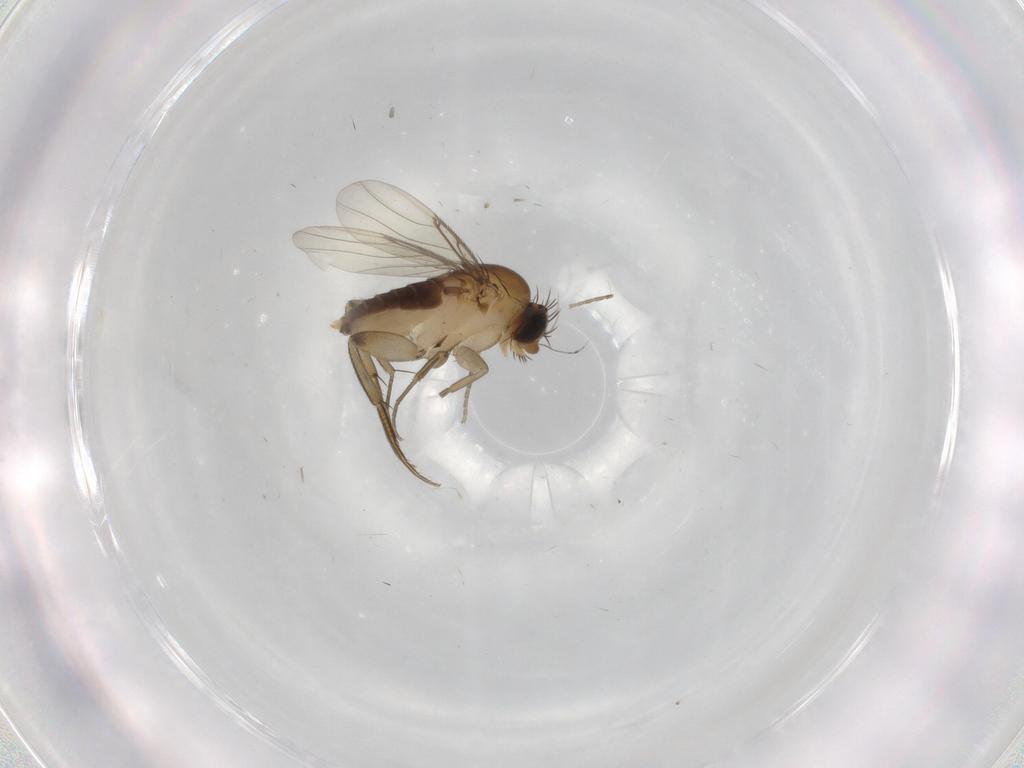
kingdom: Animalia
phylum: Arthropoda
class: Insecta
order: Diptera
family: Phoridae
